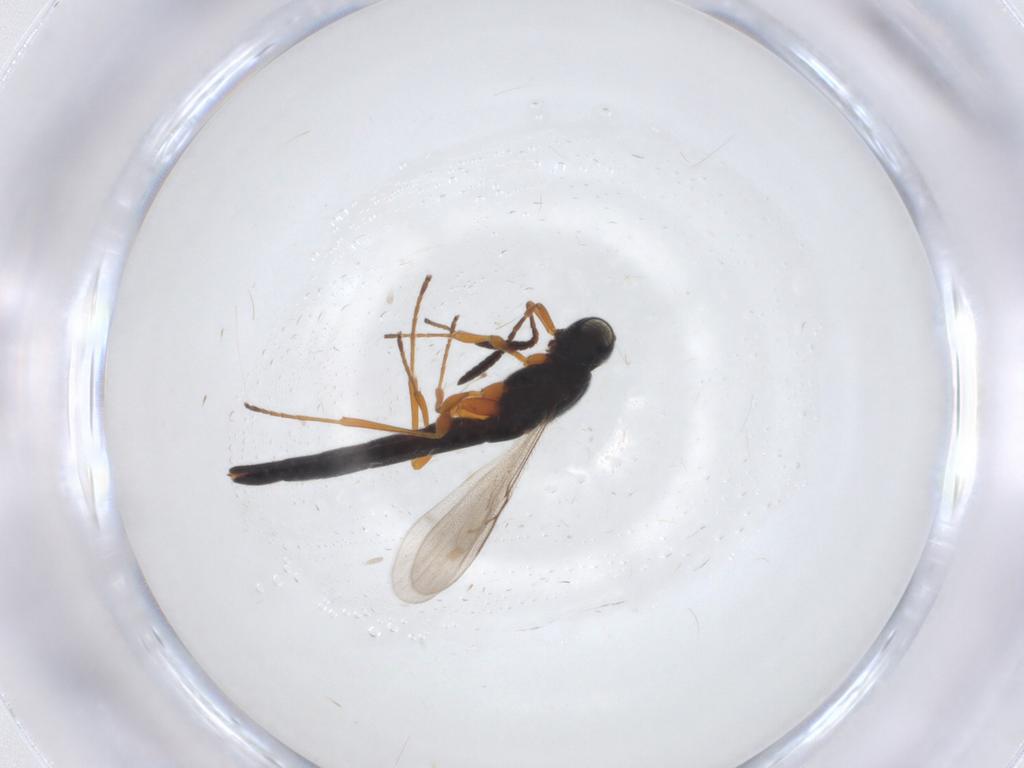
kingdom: Animalia
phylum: Arthropoda
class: Insecta
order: Hymenoptera
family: Scelionidae
